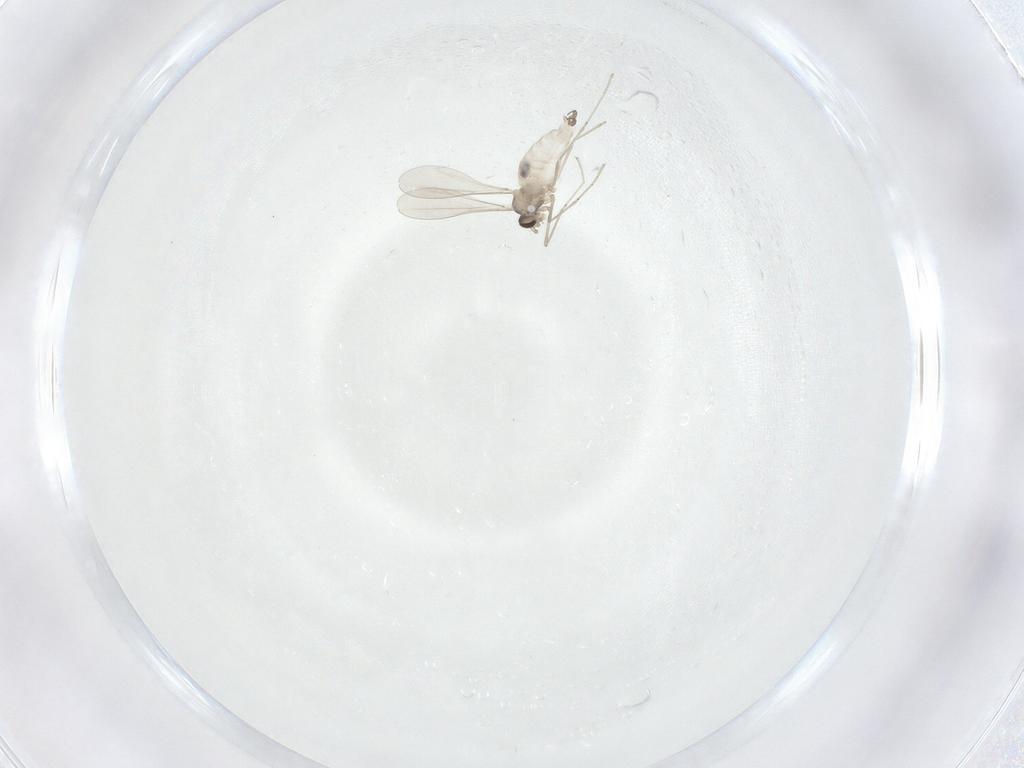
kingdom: Animalia
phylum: Arthropoda
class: Insecta
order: Diptera
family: Cecidomyiidae
